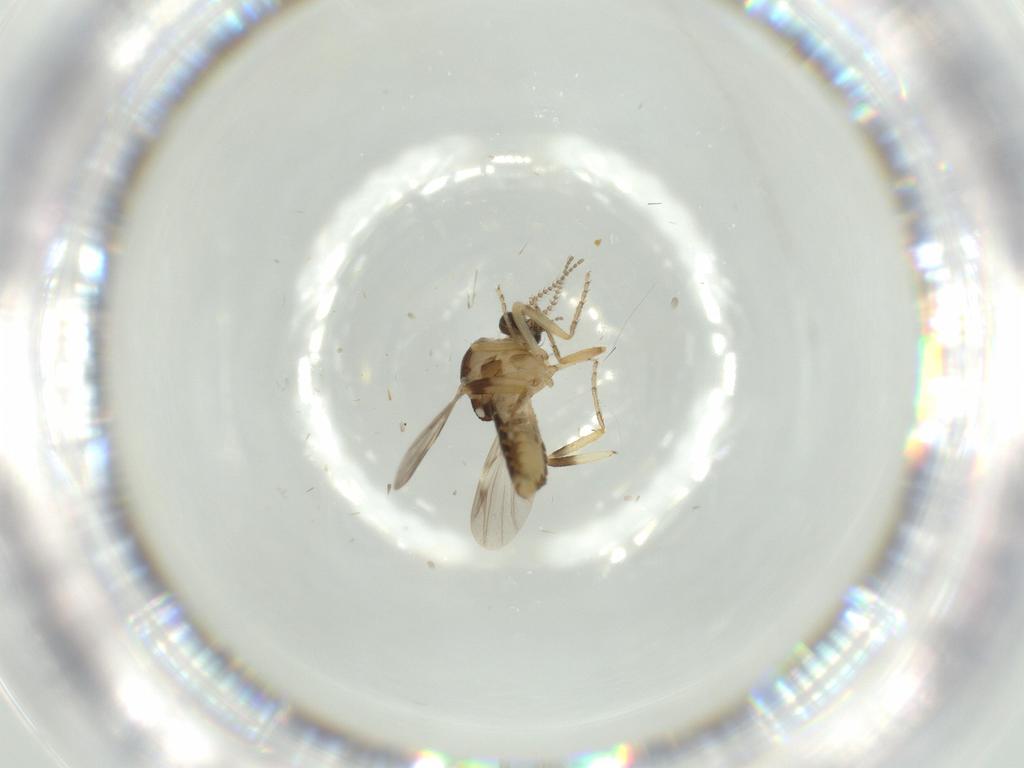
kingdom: Animalia
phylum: Arthropoda
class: Insecta
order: Diptera
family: Ceratopogonidae
